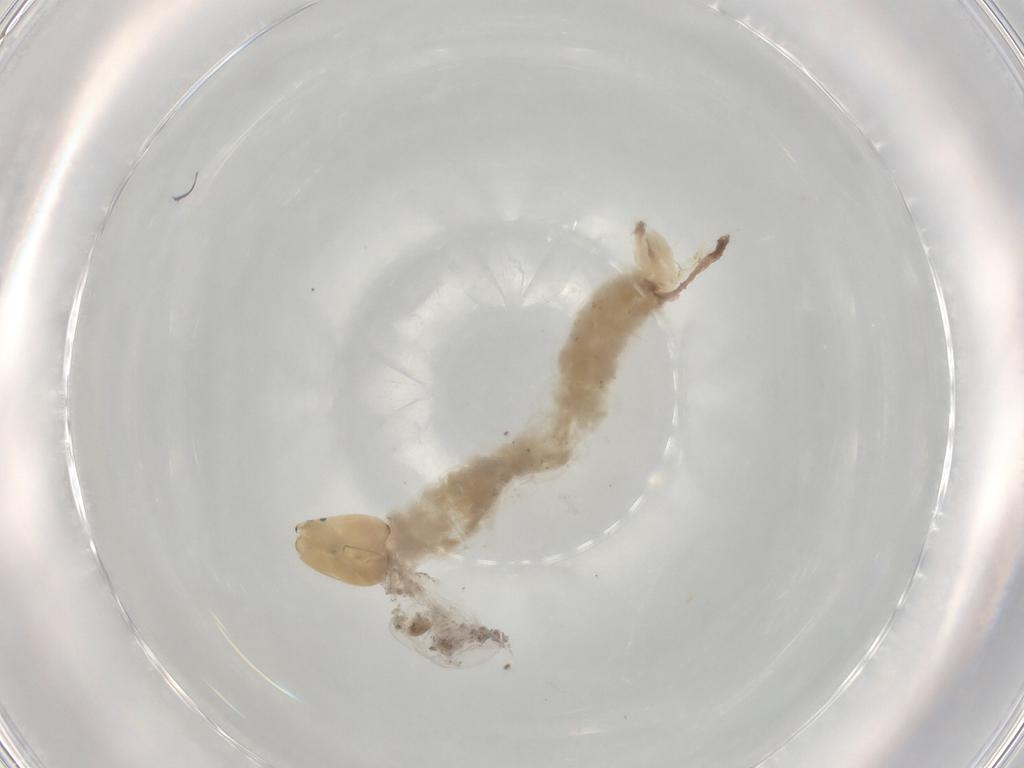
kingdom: Animalia
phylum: Arthropoda
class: Insecta
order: Diptera
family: Chironomidae
